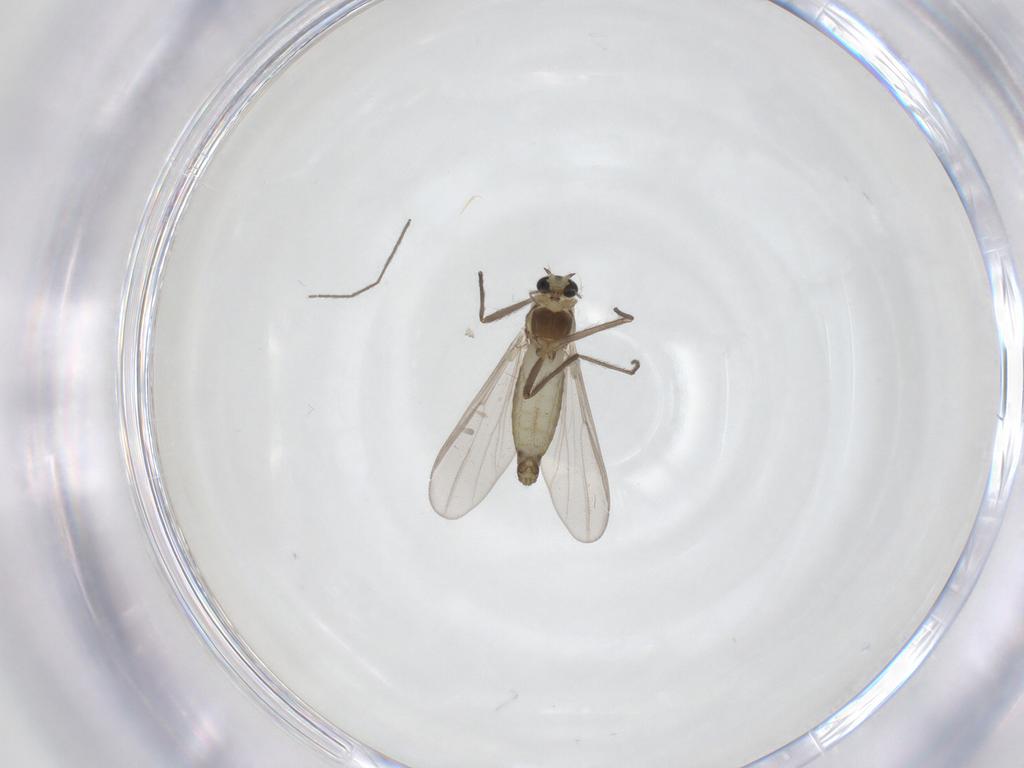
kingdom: Animalia
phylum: Arthropoda
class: Insecta
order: Diptera
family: Chironomidae
